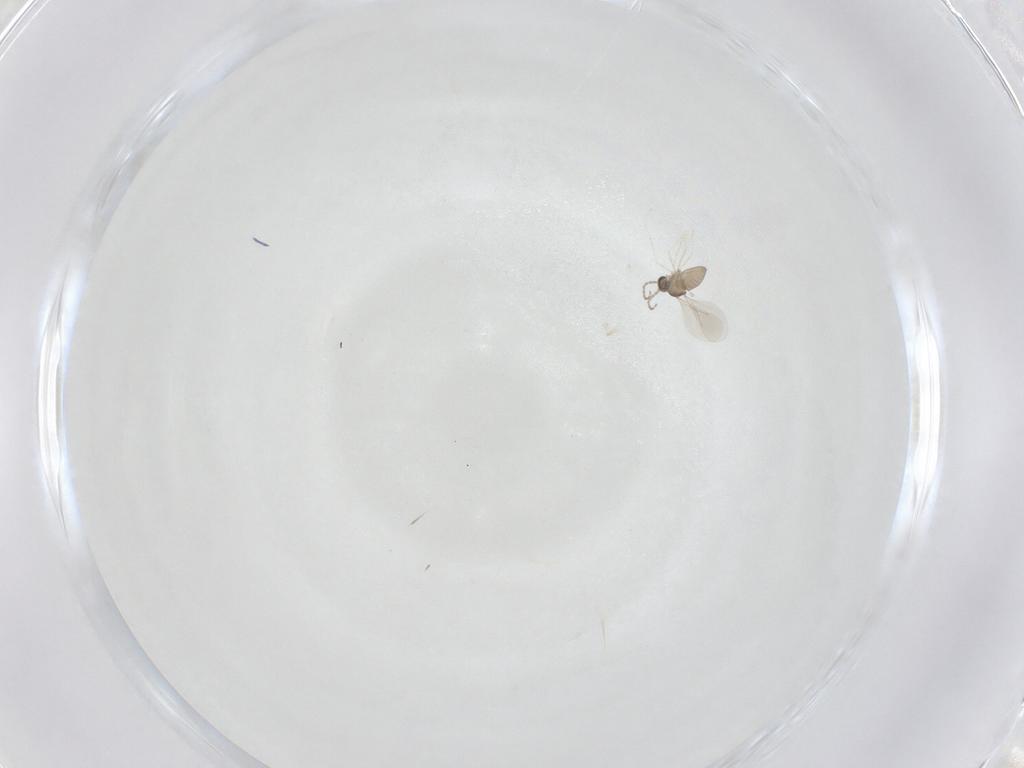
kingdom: Animalia
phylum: Arthropoda
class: Insecta
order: Diptera
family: Cecidomyiidae
